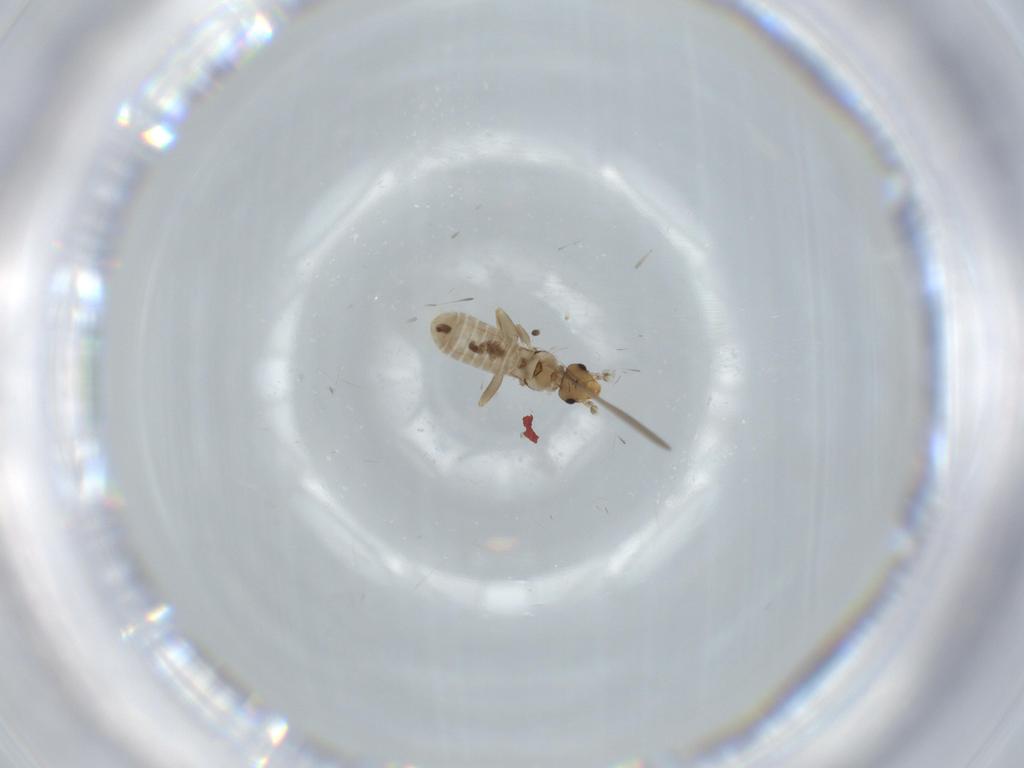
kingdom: Animalia
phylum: Arthropoda
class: Insecta
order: Psocodea
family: Liposcelididae
